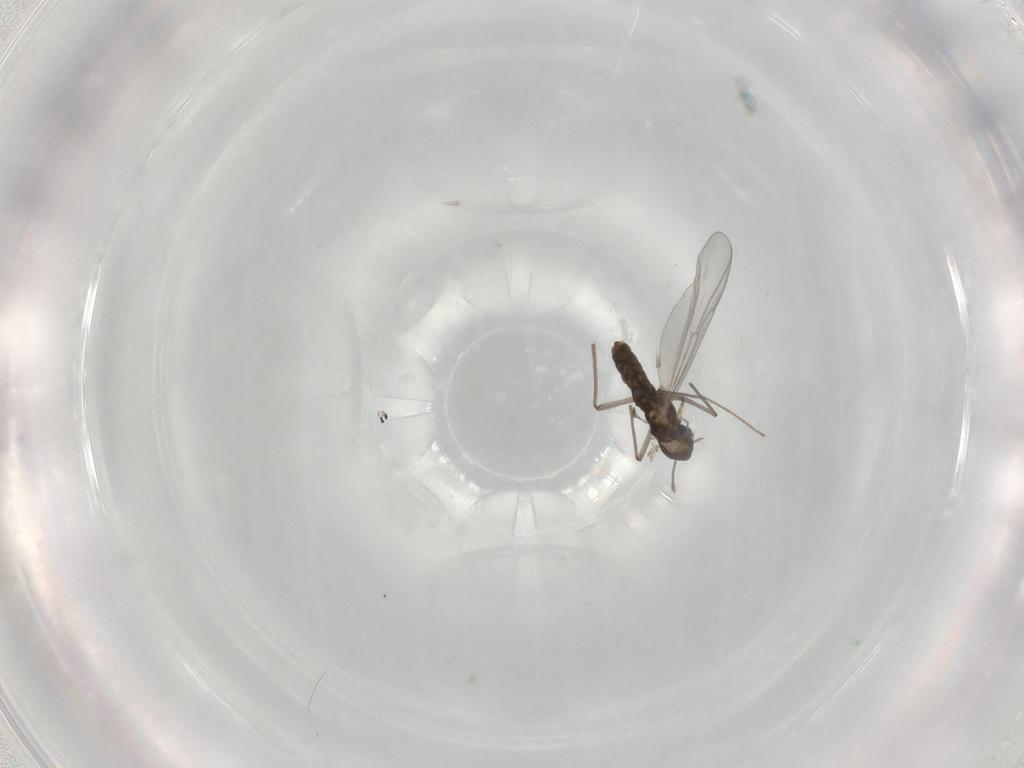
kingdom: Animalia
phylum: Arthropoda
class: Insecta
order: Diptera
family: Chironomidae
